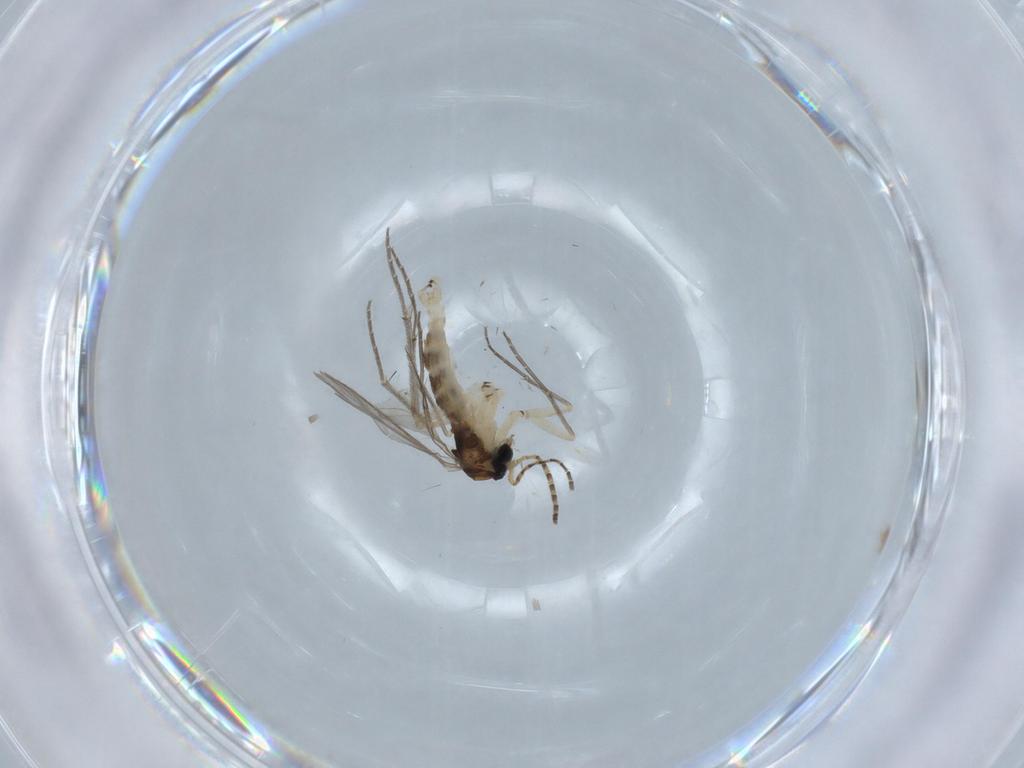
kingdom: Animalia
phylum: Arthropoda
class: Insecta
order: Diptera
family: Sciaridae
